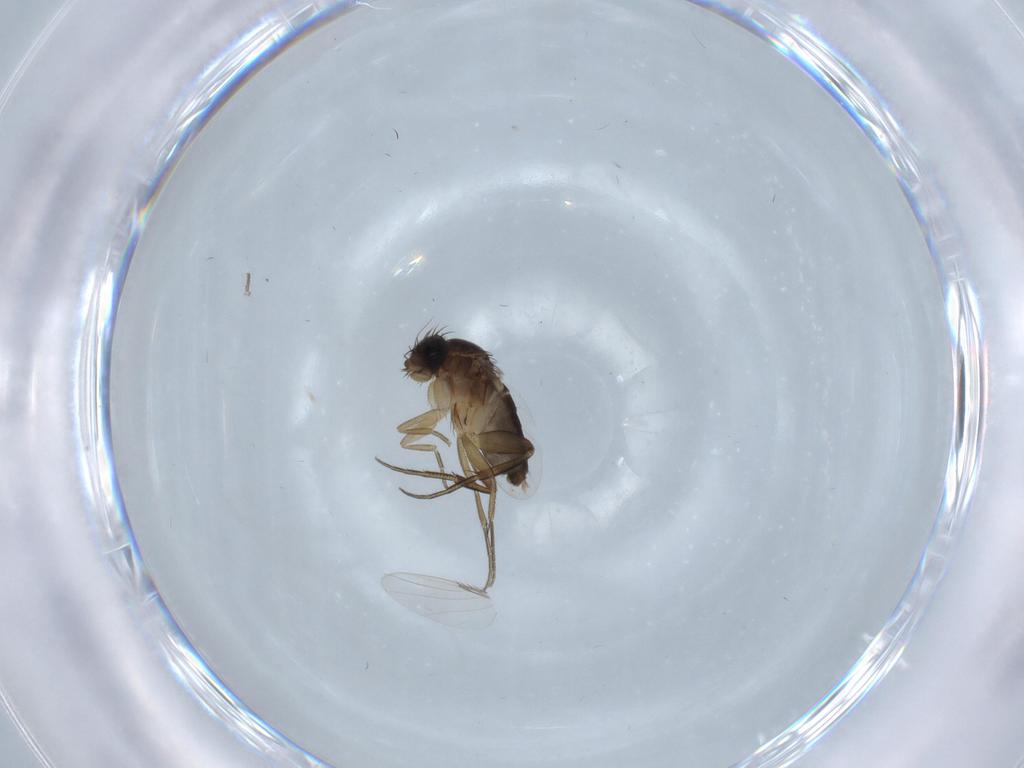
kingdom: Animalia
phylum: Arthropoda
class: Insecta
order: Diptera
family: Phoridae
